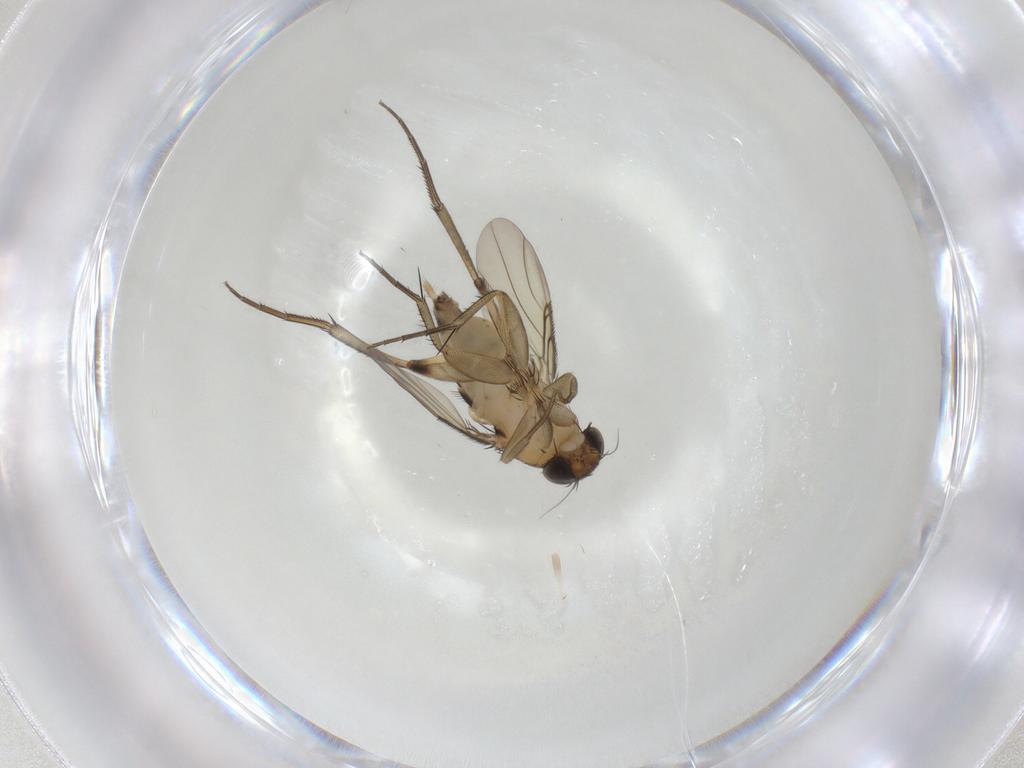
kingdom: Animalia
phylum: Arthropoda
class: Insecta
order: Diptera
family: Phoridae
